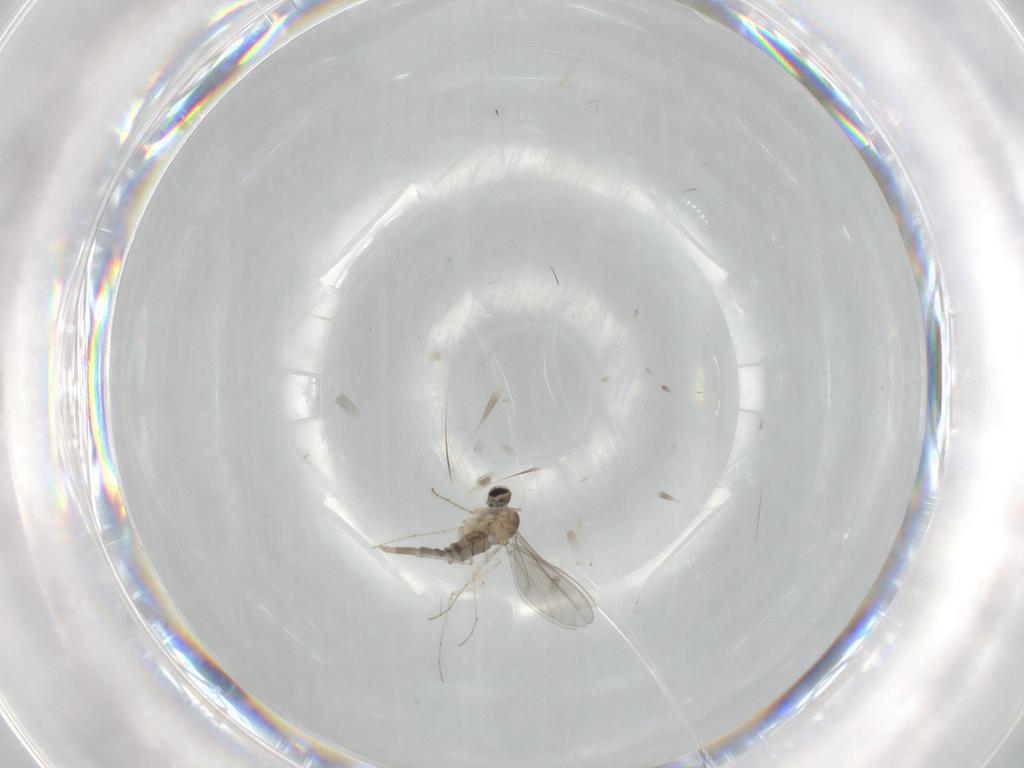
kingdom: Animalia
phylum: Arthropoda
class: Insecta
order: Diptera
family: Cecidomyiidae
